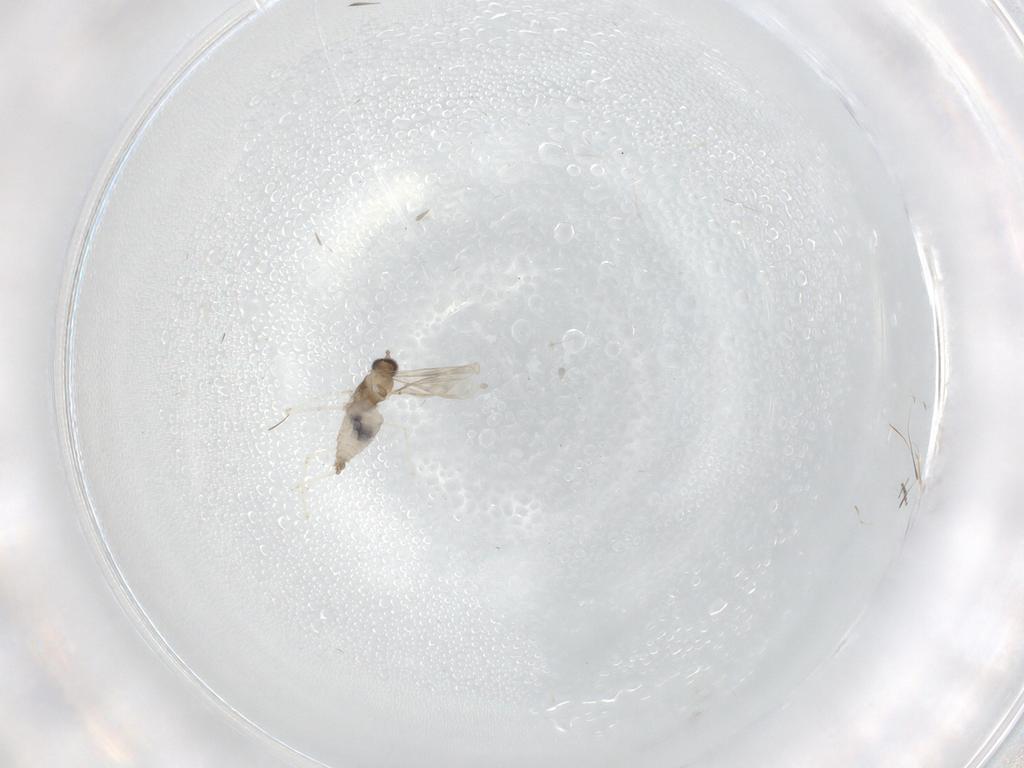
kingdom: Animalia
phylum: Arthropoda
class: Insecta
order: Diptera
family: Cecidomyiidae
